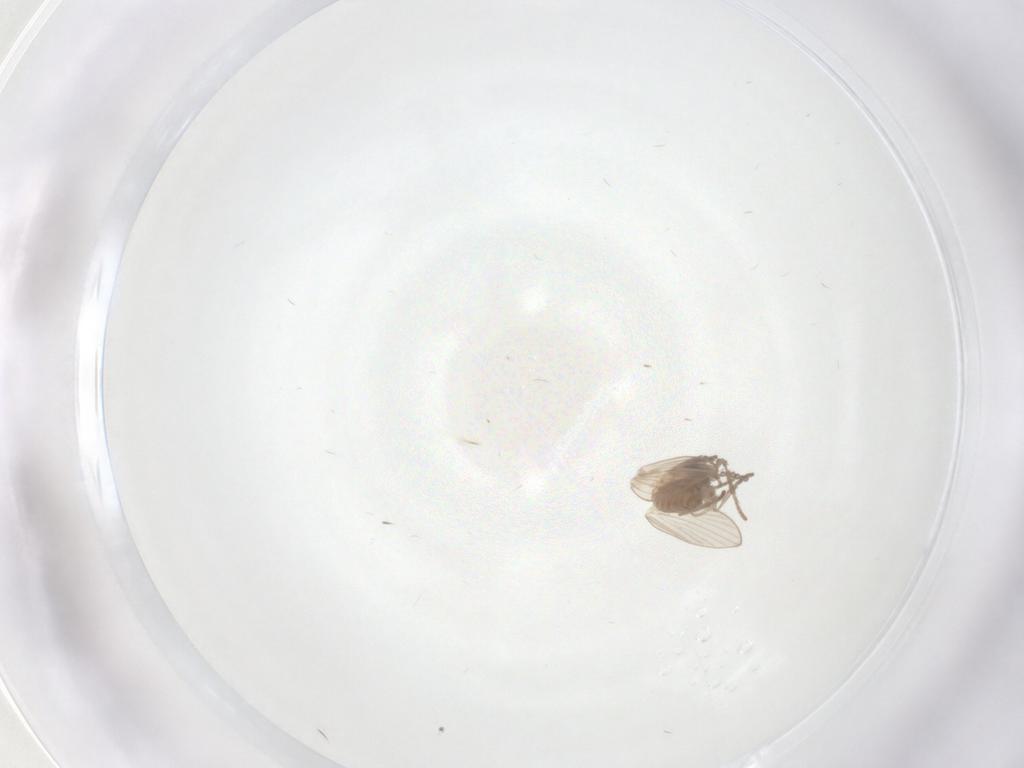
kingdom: Animalia
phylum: Arthropoda
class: Insecta
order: Diptera
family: Psychodidae
